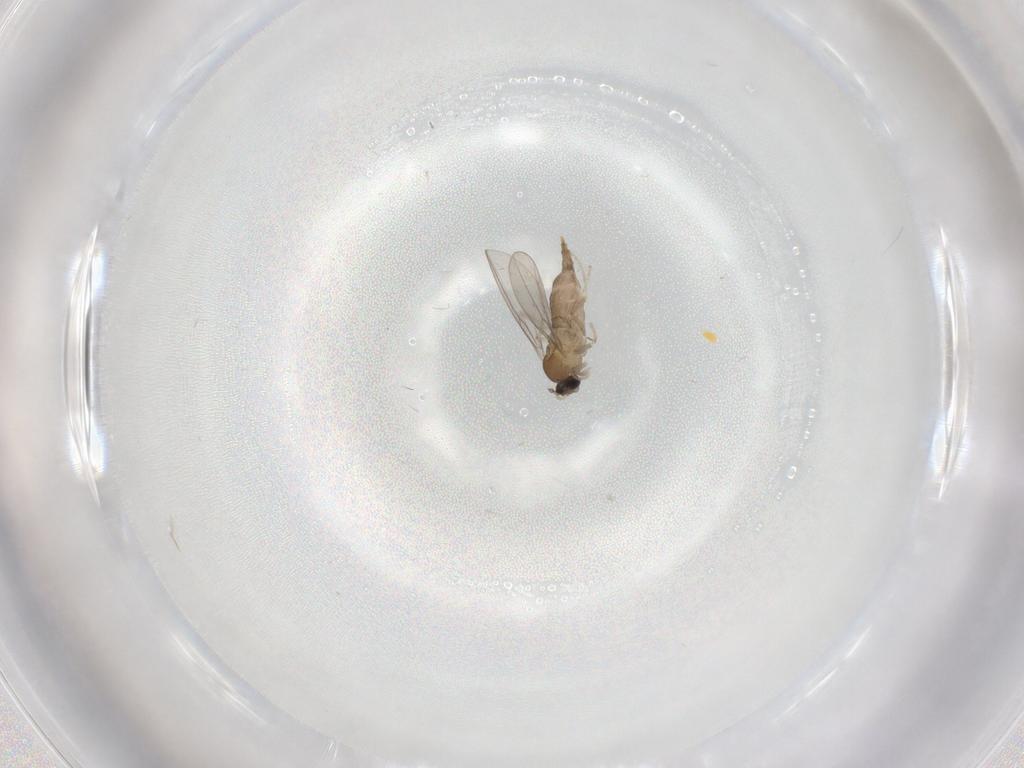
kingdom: Animalia
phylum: Arthropoda
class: Insecta
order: Diptera
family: Cecidomyiidae
